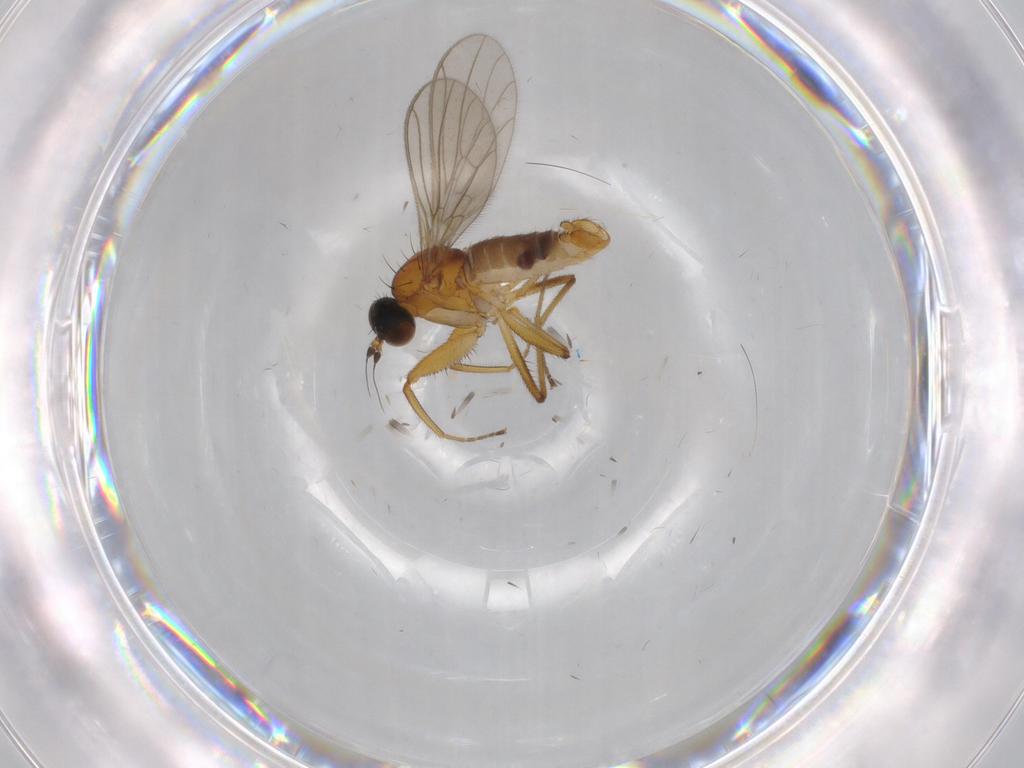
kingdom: Animalia
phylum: Arthropoda
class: Insecta
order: Diptera
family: Empididae
